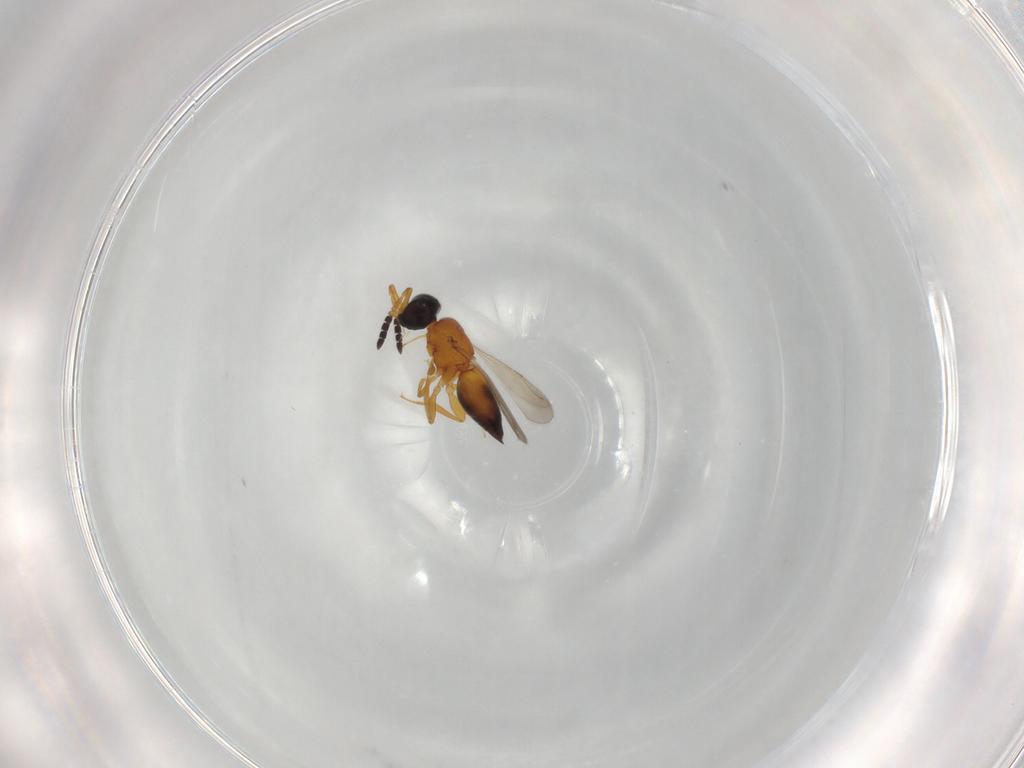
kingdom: Animalia
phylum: Arthropoda
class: Insecta
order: Hymenoptera
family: Ceraphronidae
